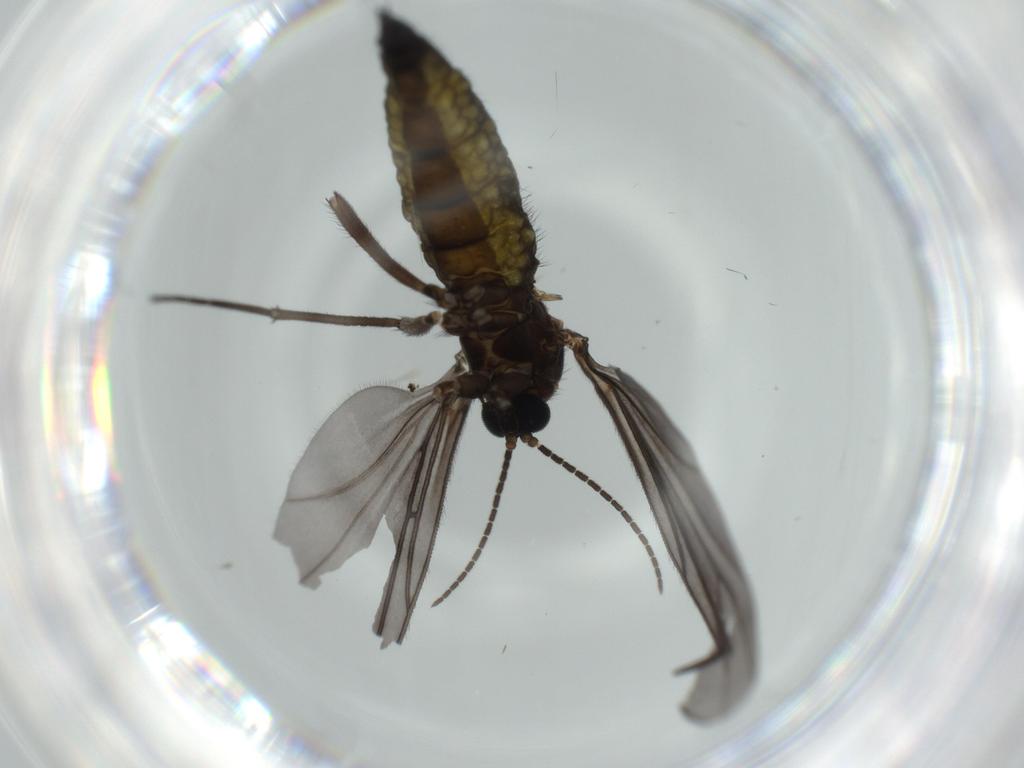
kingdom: Animalia
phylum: Arthropoda
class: Insecta
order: Diptera
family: Sciaridae
